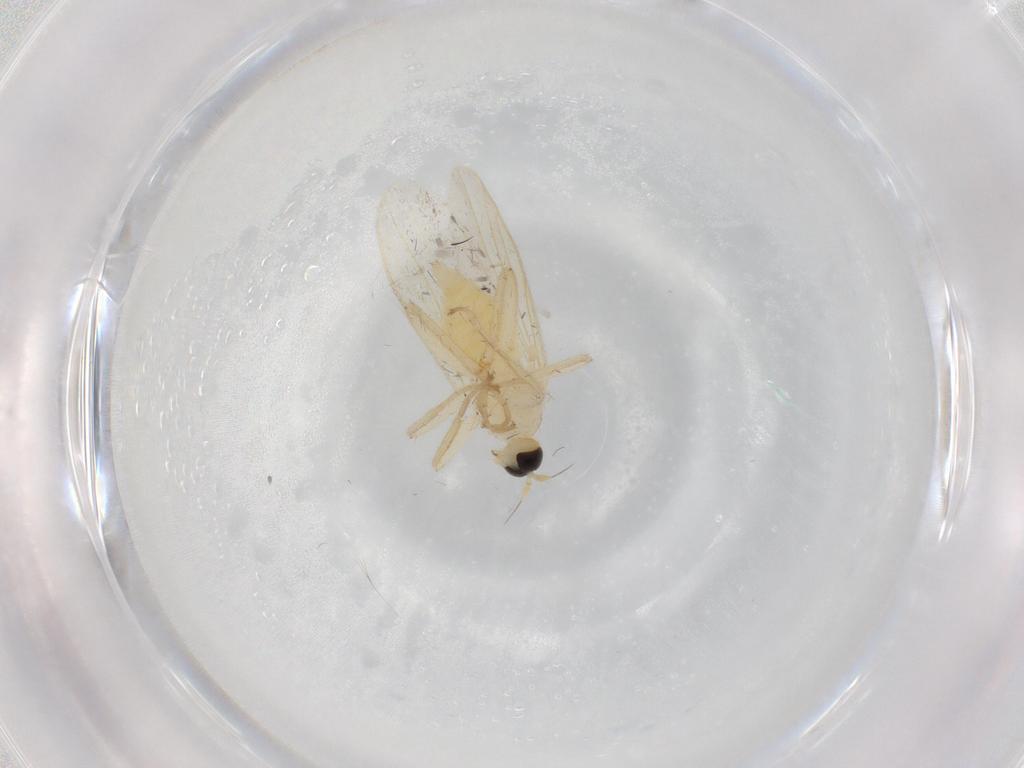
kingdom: Animalia
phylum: Arthropoda
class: Insecta
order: Diptera
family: Hybotidae
